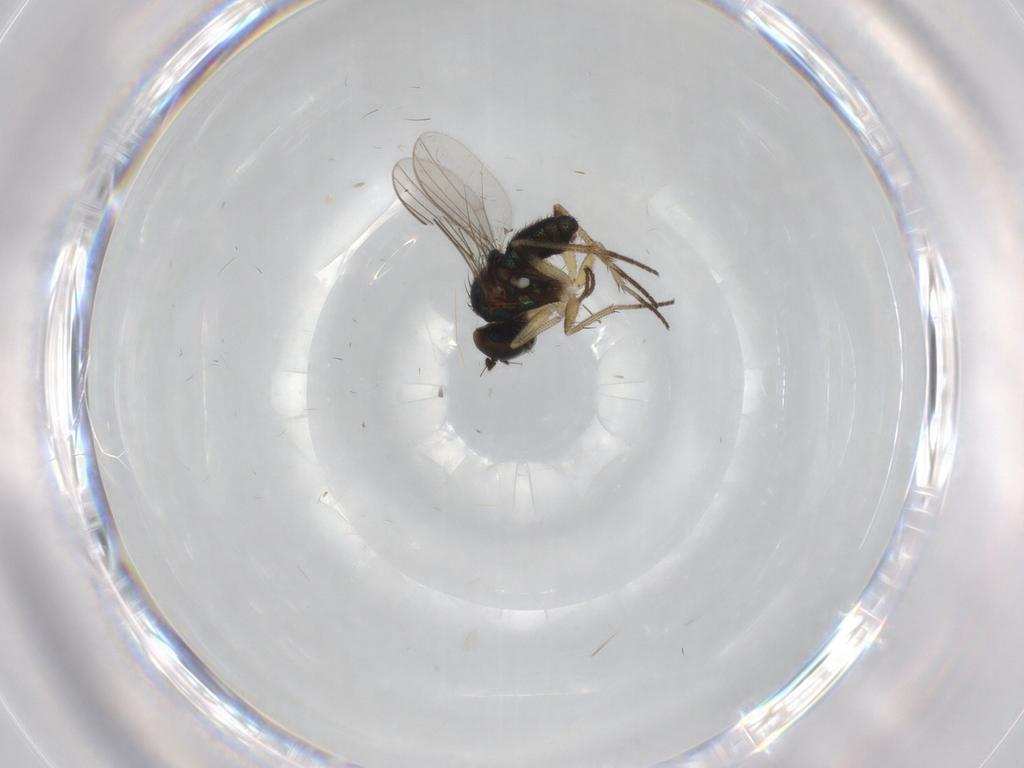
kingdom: Animalia
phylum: Arthropoda
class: Insecta
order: Diptera
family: Dolichopodidae
